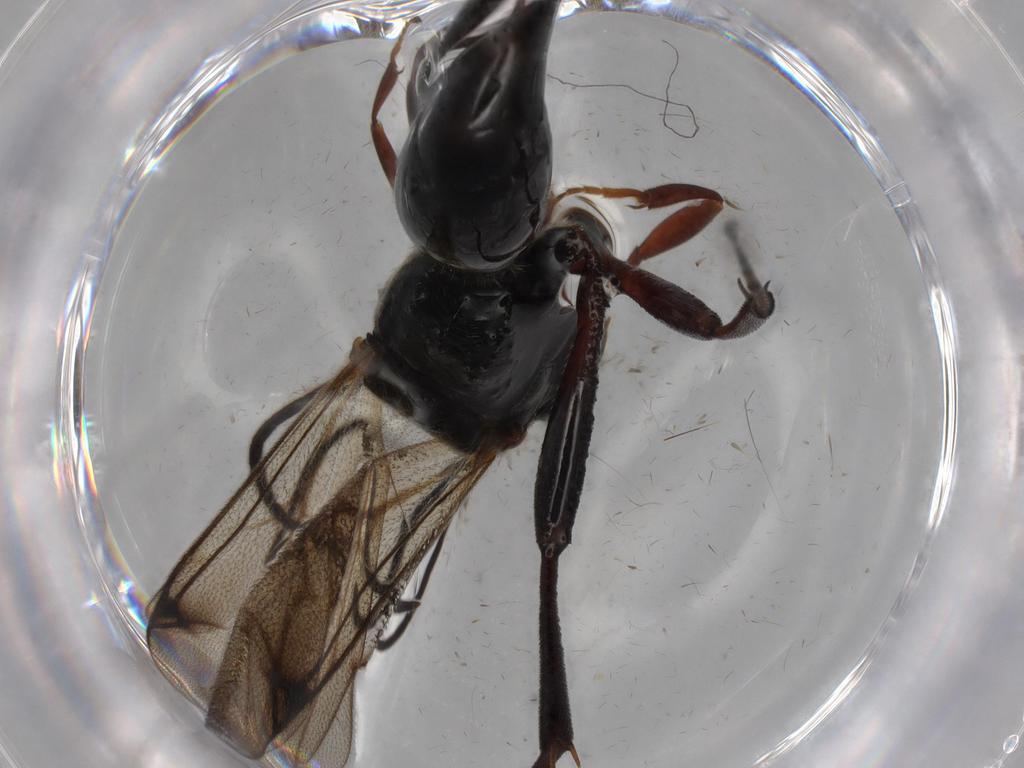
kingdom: Animalia
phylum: Arthropoda
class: Insecta
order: Hymenoptera
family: Proctotrupidae
